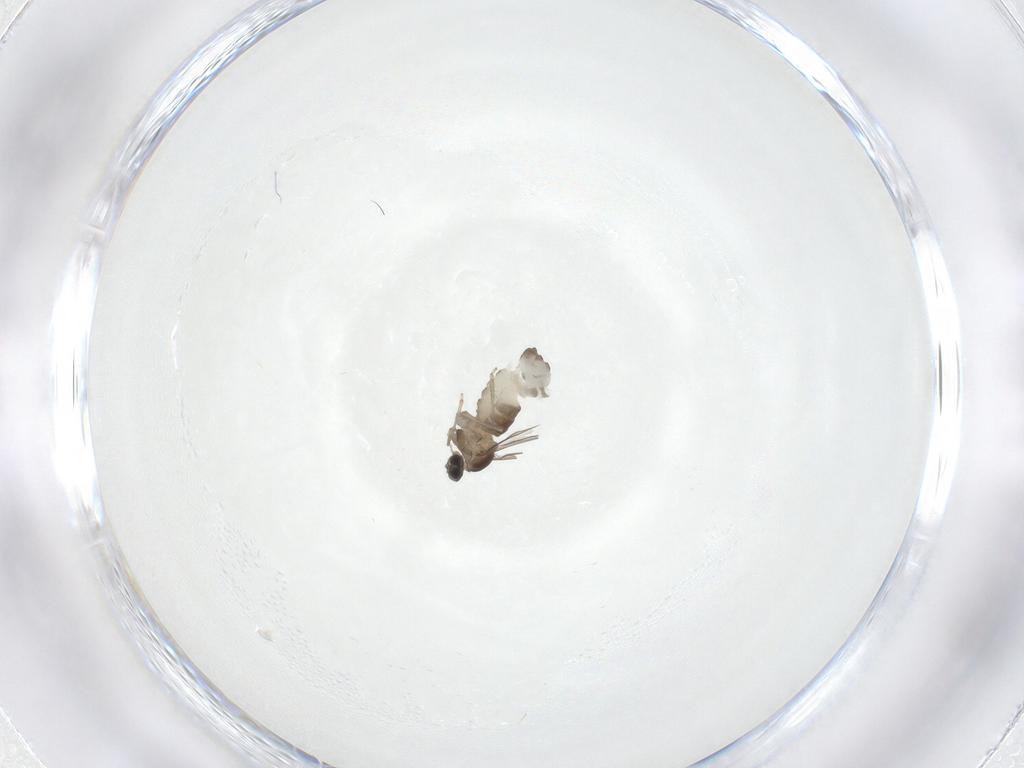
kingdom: Animalia
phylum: Arthropoda
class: Insecta
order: Diptera
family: Cecidomyiidae
